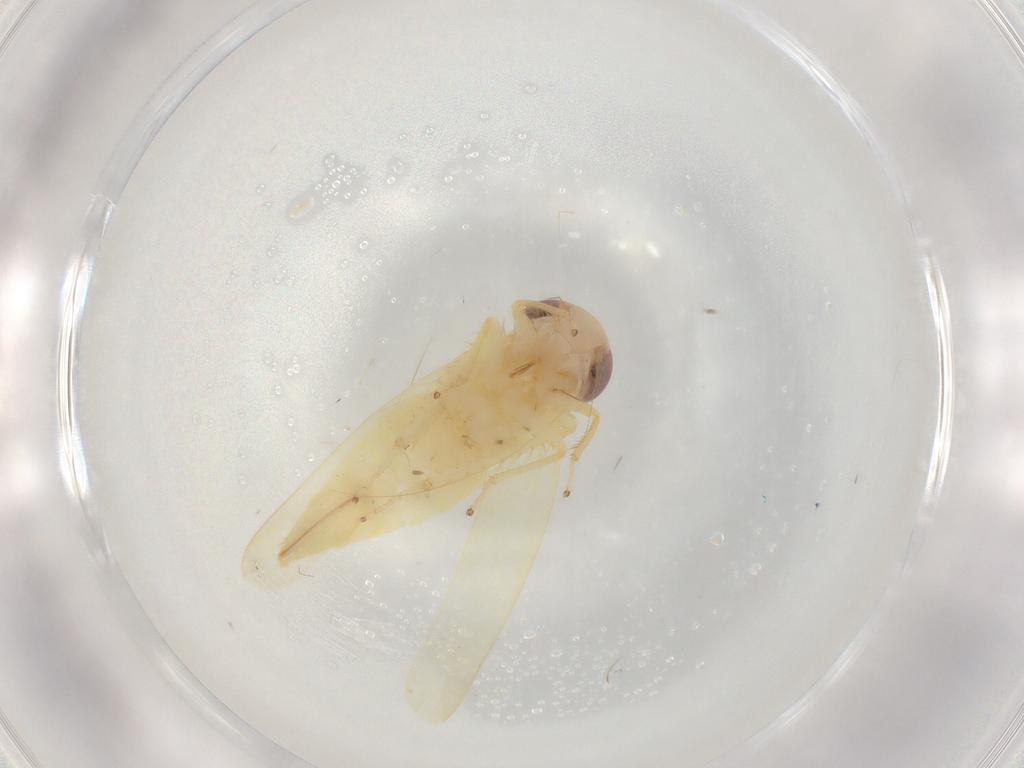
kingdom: Animalia
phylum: Arthropoda
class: Insecta
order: Hemiptera
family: Cicadellidae
